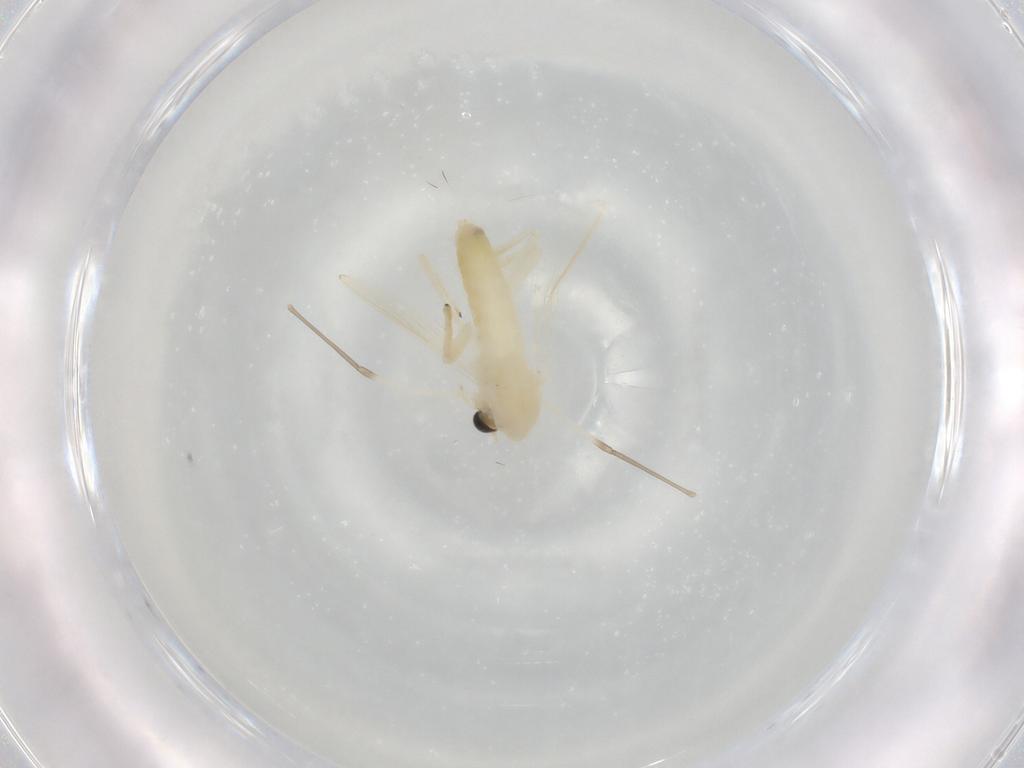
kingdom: Animalia
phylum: Arthropoda
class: Insecta
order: Diptera
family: Chironomidae
